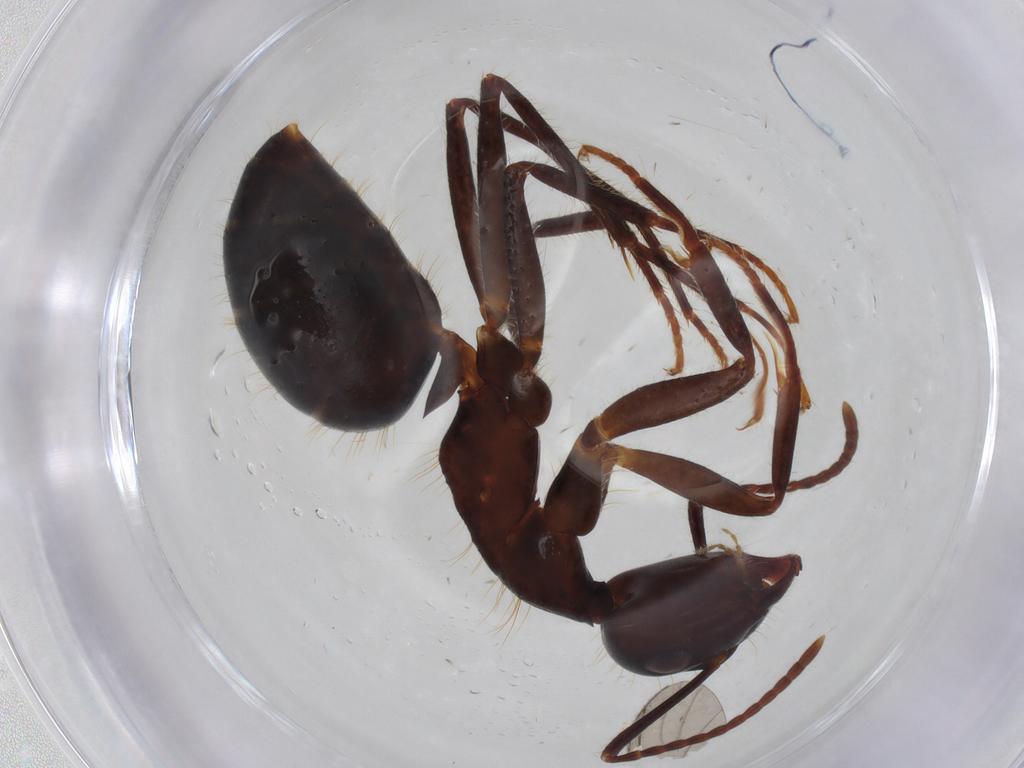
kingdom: Animalia
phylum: Arthropoda
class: Insecta
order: Hymenoptera
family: Formicidae
